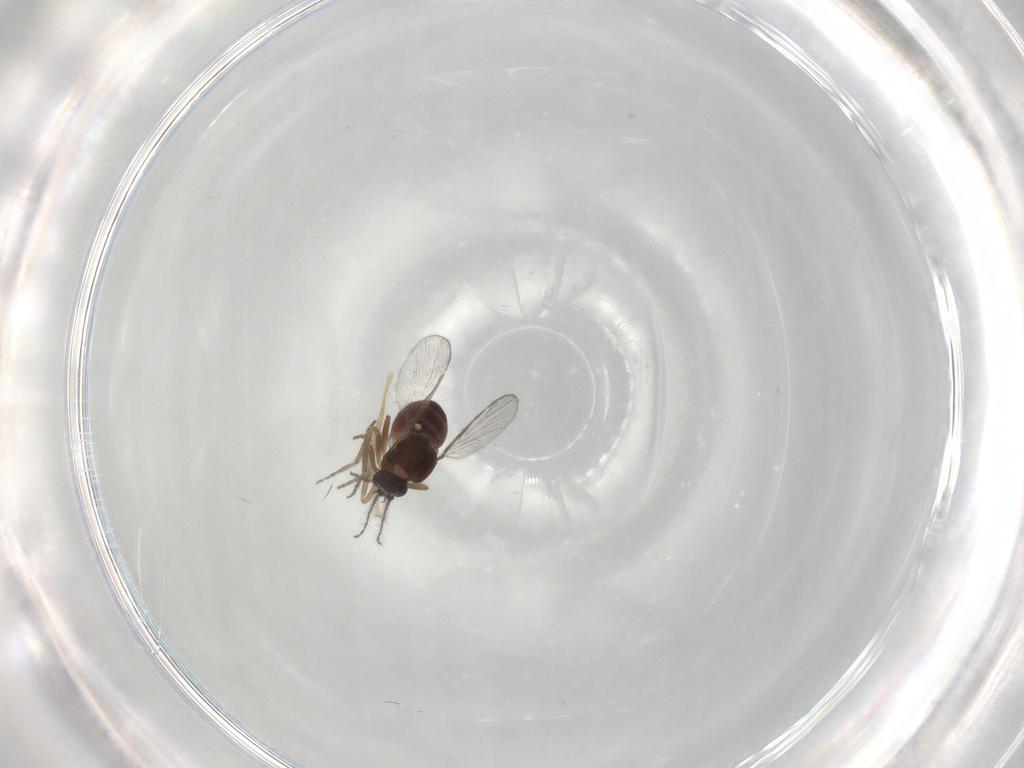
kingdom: Animalia
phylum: Arthropoda
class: Insecta
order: Diptera
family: Chironomidae
